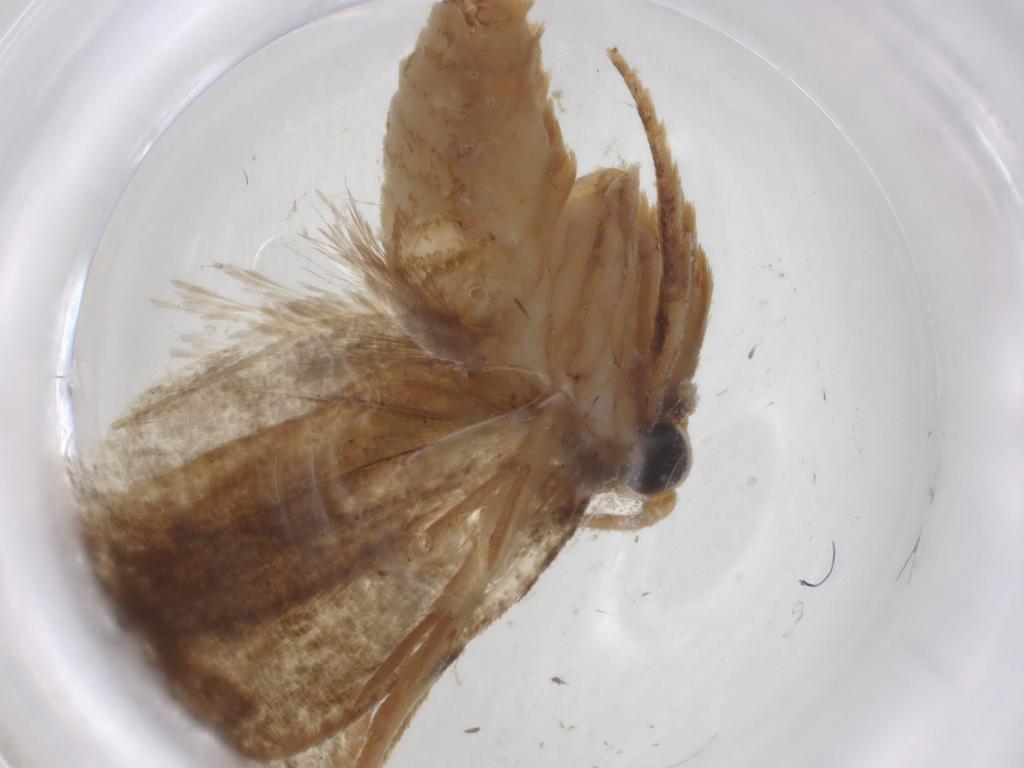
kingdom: Animalia
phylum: Arthropoda
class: Insecta
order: Lepidoptera
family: Tineidae
